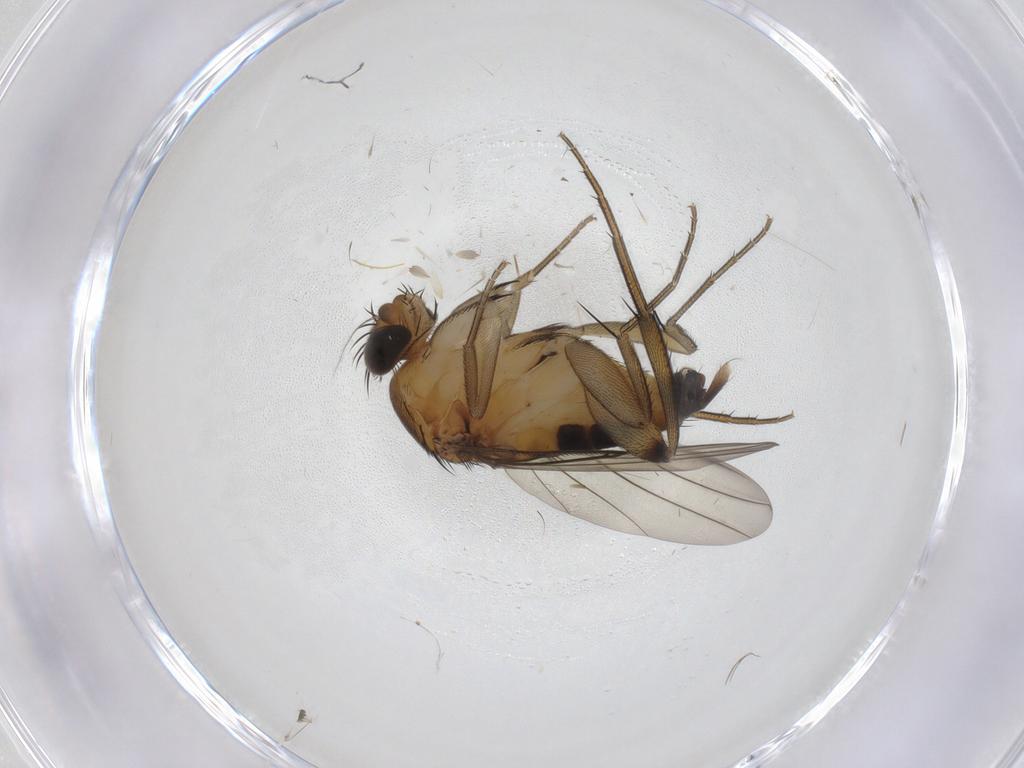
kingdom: Animalia
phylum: Arthropoda
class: Insecta
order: Diptera
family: Phoridae
